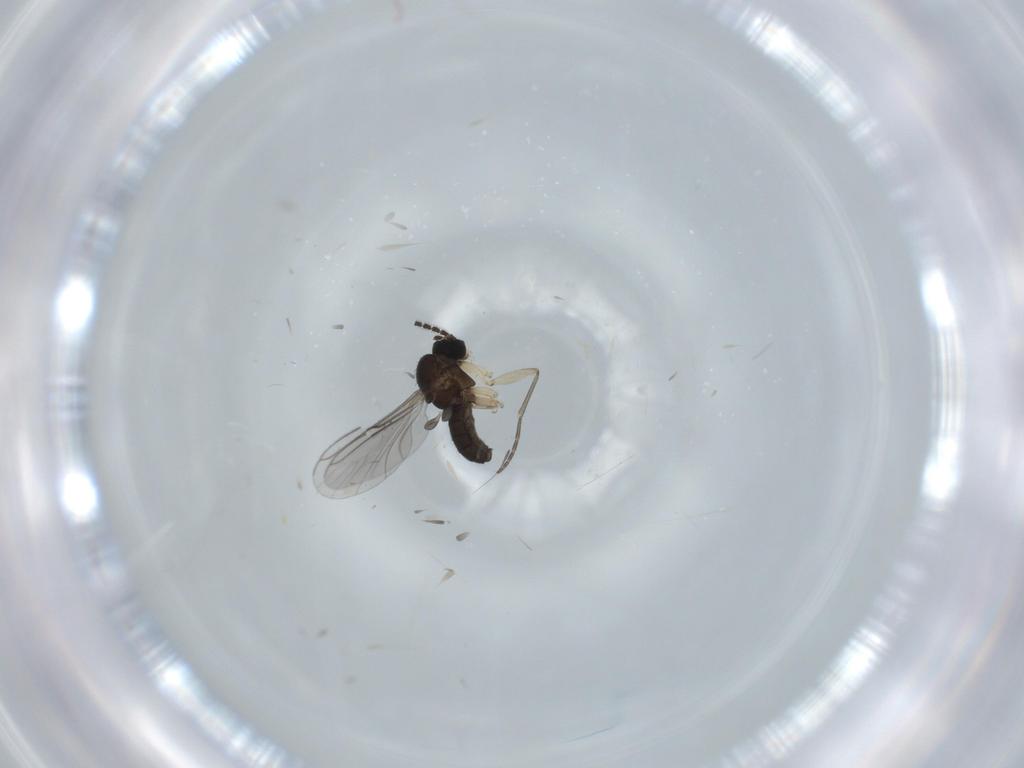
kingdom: Animalia
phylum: Arthropoda
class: Insecta
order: Diptera
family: Sciaridae
